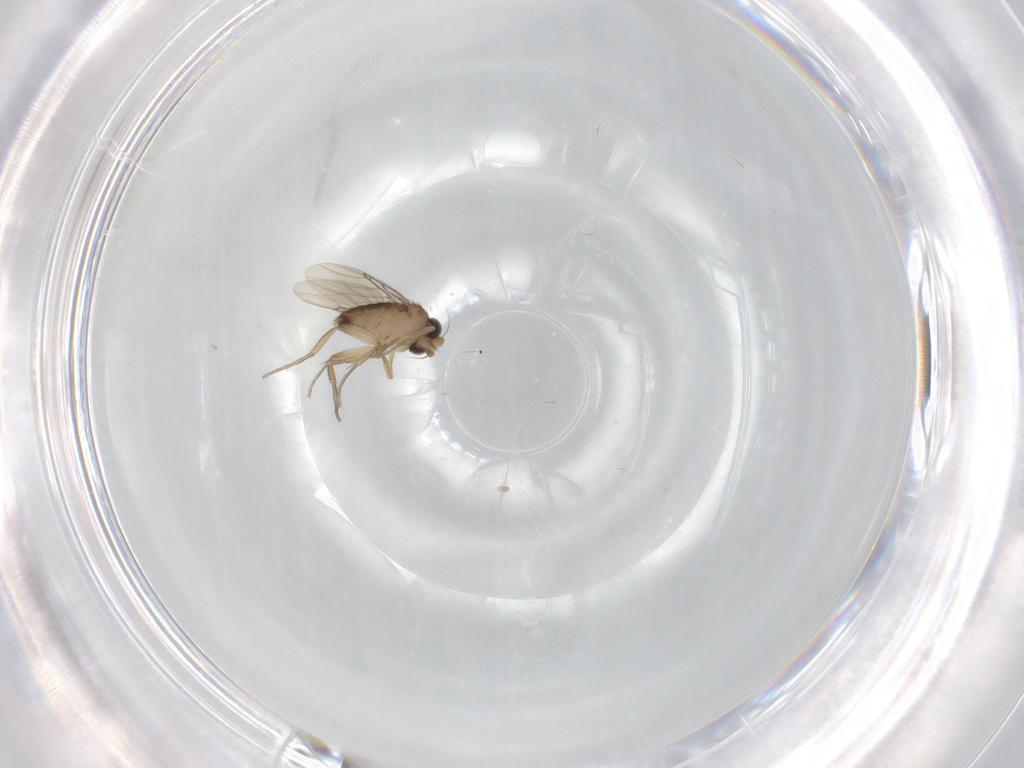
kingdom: Animalia
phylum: Arthropoda
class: Insecta
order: Diptera
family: Phoridae
